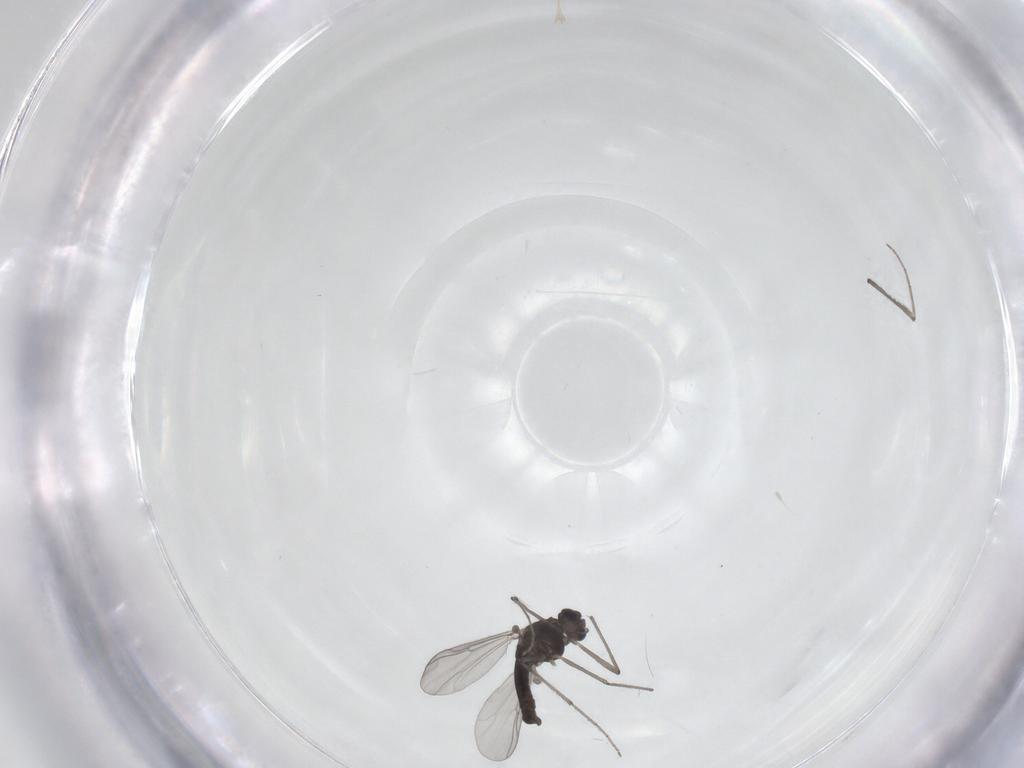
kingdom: Animalia
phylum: Arthropoda
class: Insecta
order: Diptera
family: Chironomidae
